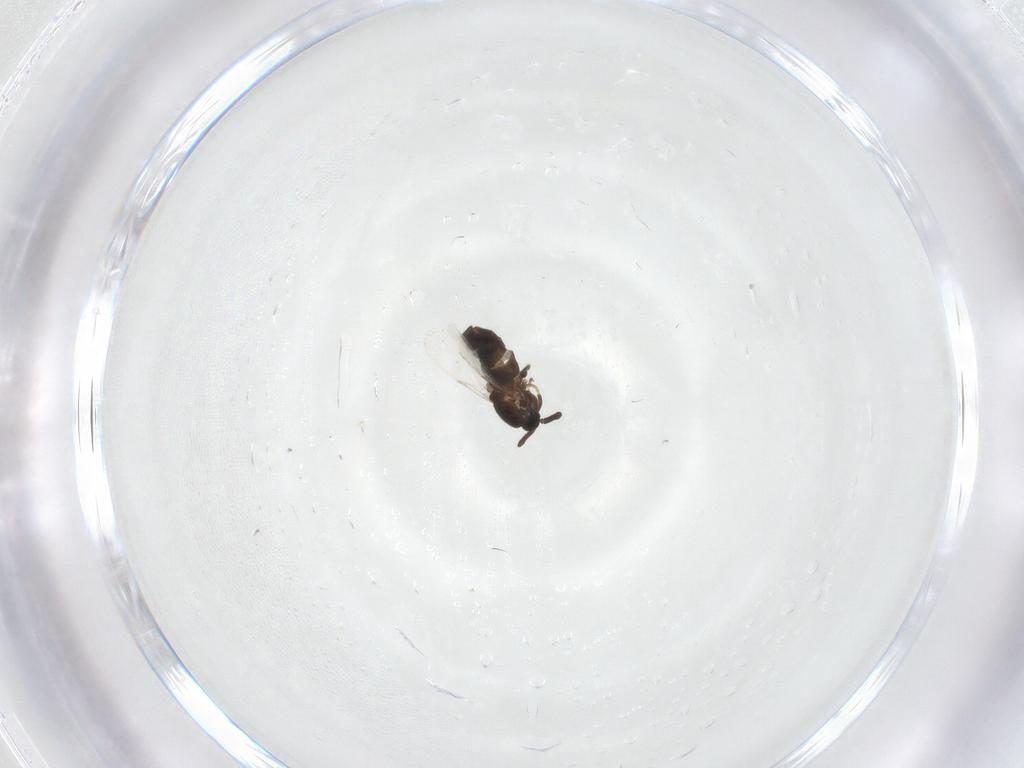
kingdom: Animalia
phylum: Arthropoda
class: Insecta
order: Diptera
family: Scatopsidae
